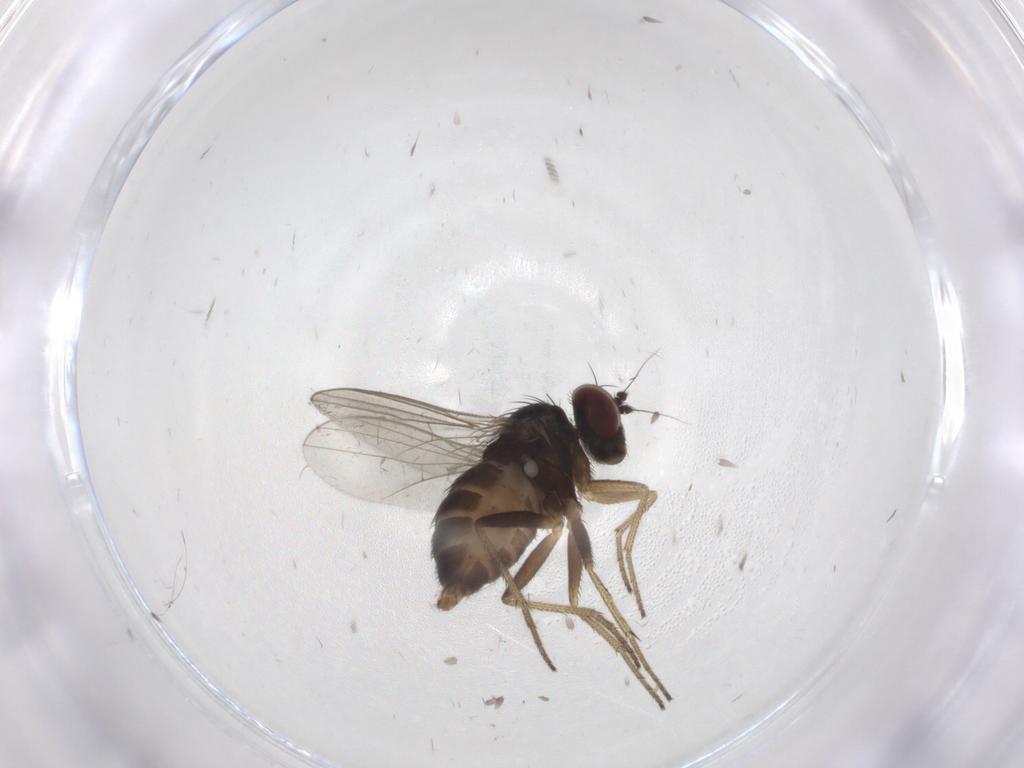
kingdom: Animalia
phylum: Arthropoda
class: Insecta
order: Diptera
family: Dolichopodidae
